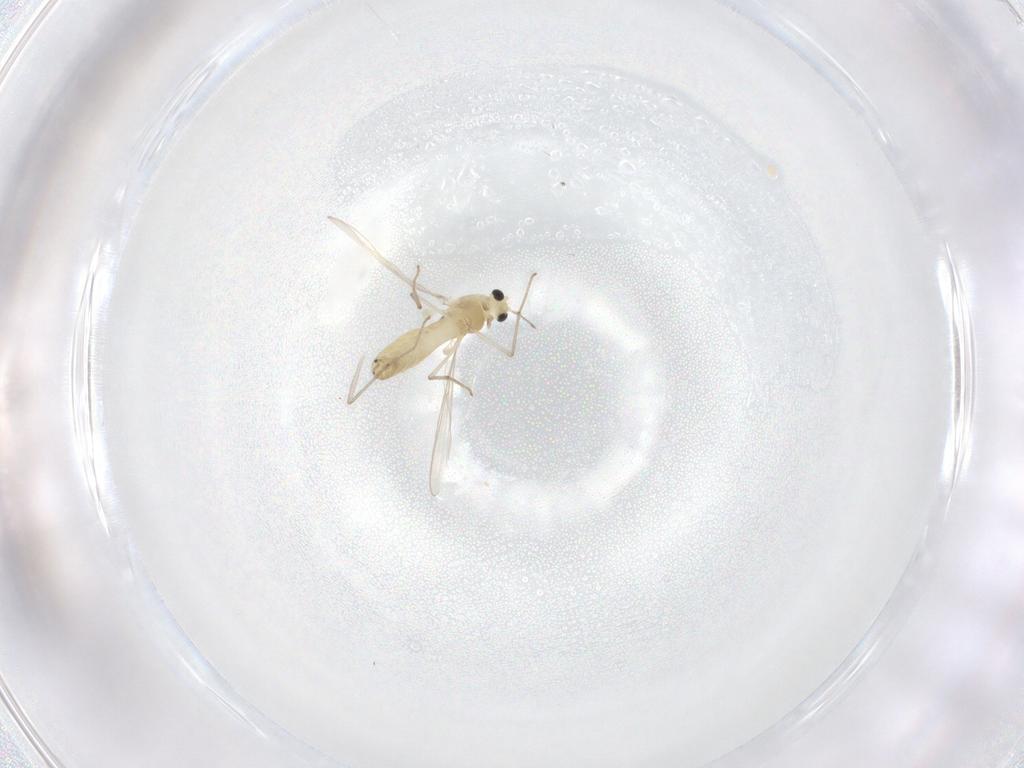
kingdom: Animalia
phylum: Arthropoda
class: Insecta
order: Diptera
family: Chironomidae
